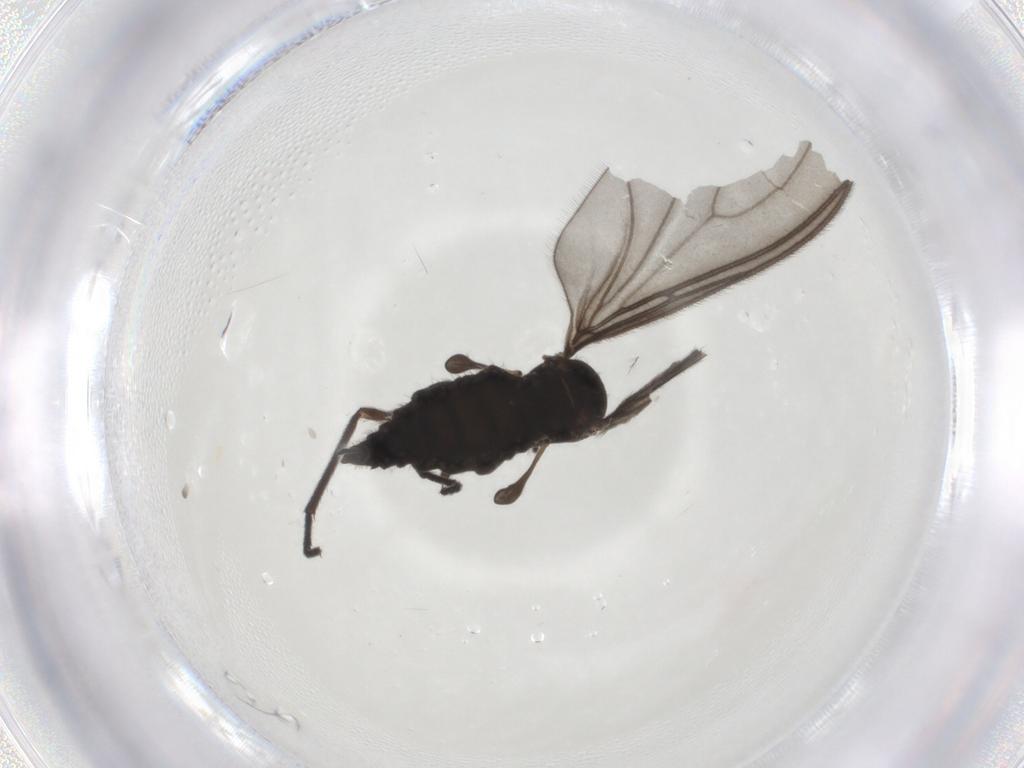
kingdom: Animalia
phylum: Arthropoda
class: Insecta
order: Diptera
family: Sciaridae
